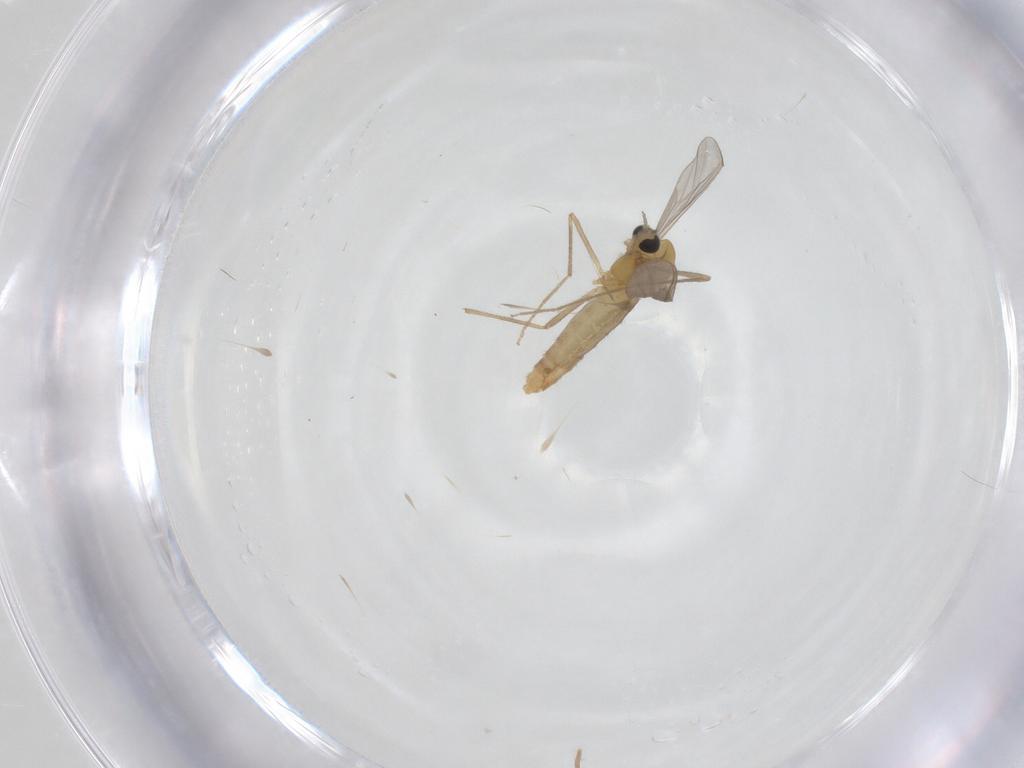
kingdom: Animalia
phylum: Arthropoda
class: Insecta
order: Diptera
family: Chironomidae
